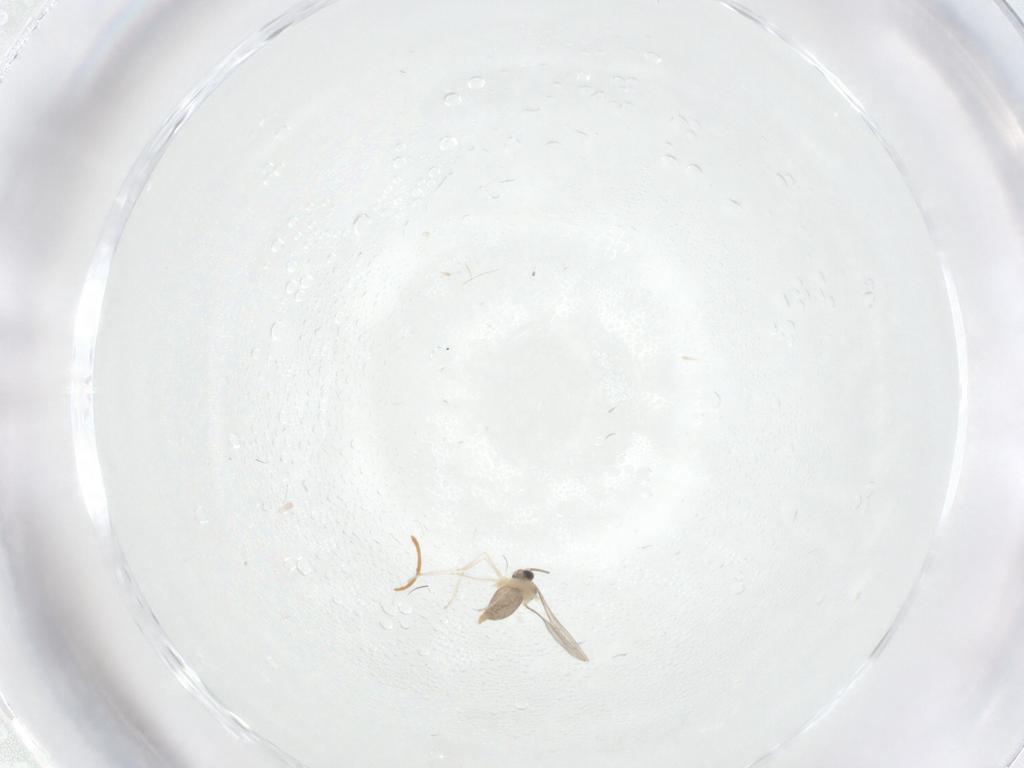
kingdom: Animalia
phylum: Arthropoda
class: Insecta
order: Diptera
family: Cecidomyiidae
